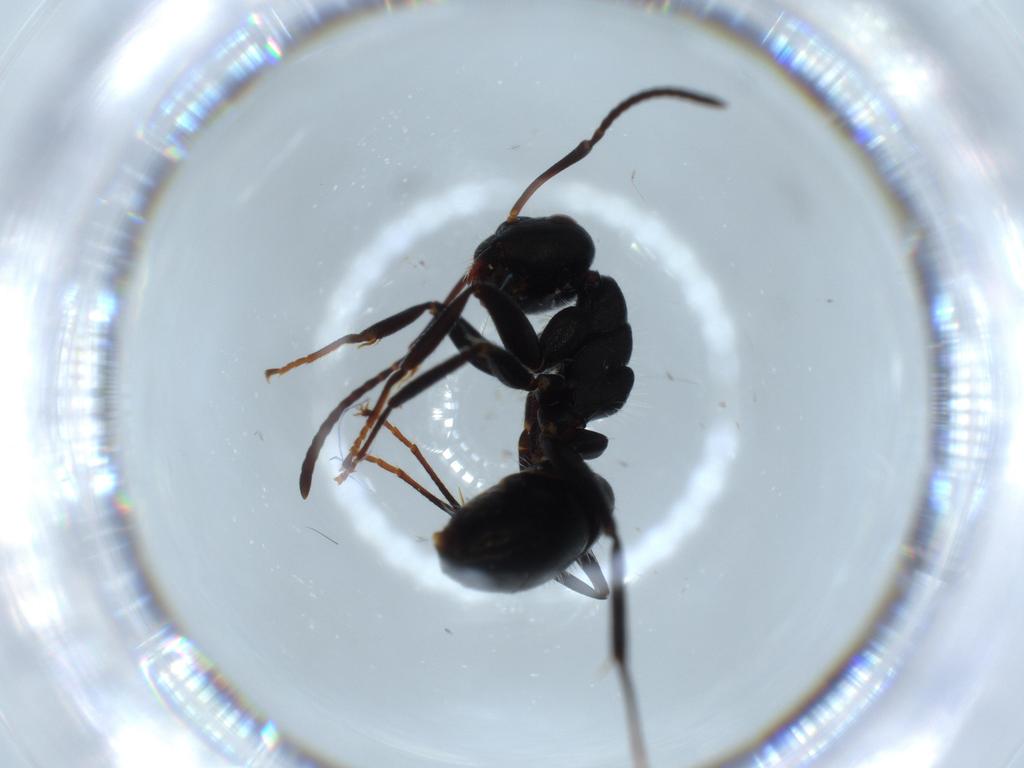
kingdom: Animalia
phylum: Arthropoda
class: Insecta
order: Hymenoptera
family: Formicidae
